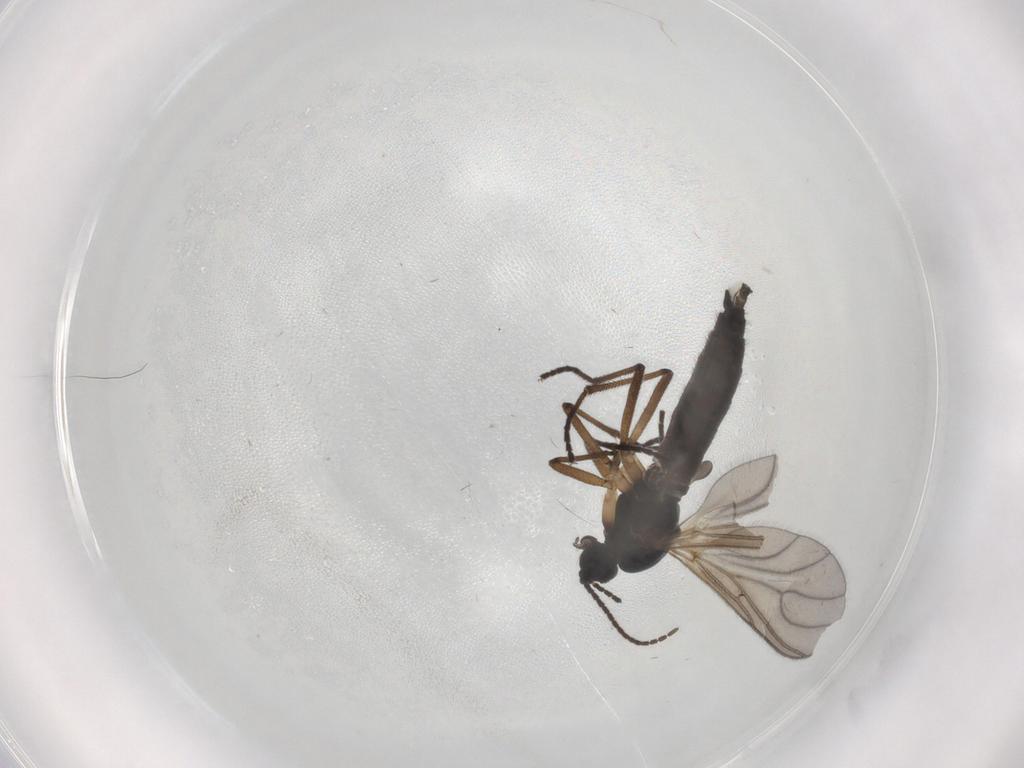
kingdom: Animalia
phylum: Arthropoda
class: Insecta
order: Diptera
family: Sciaridae
